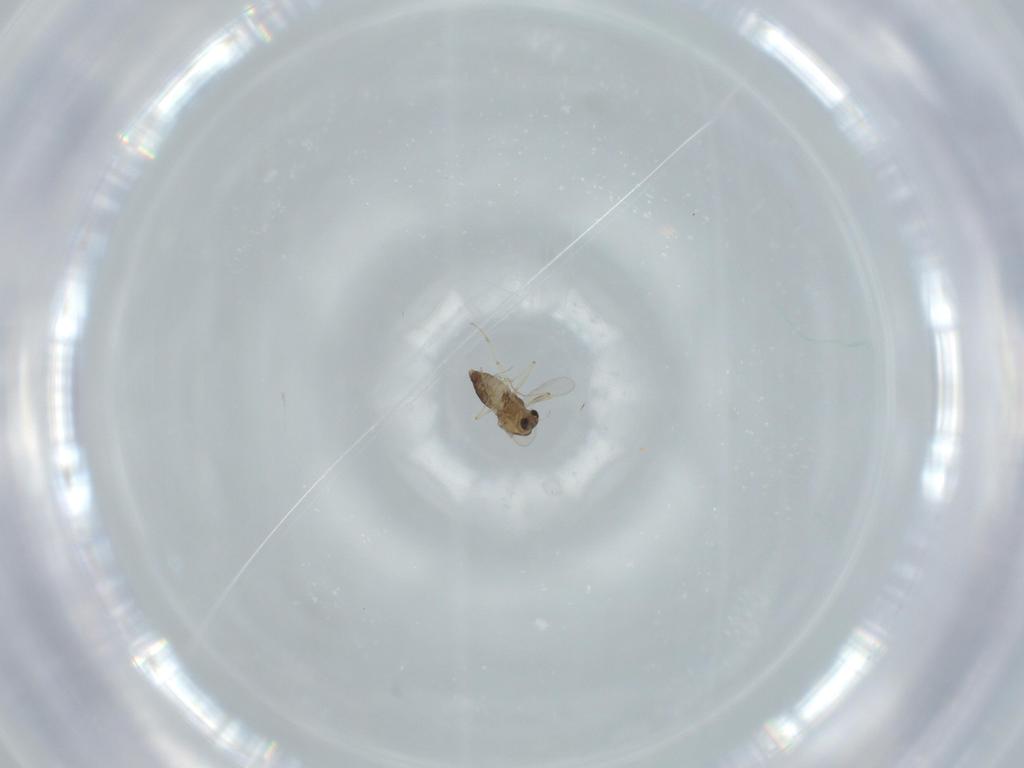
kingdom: Animalia
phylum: Arthropoda
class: Insecta
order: Diptera
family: Chironomidae
